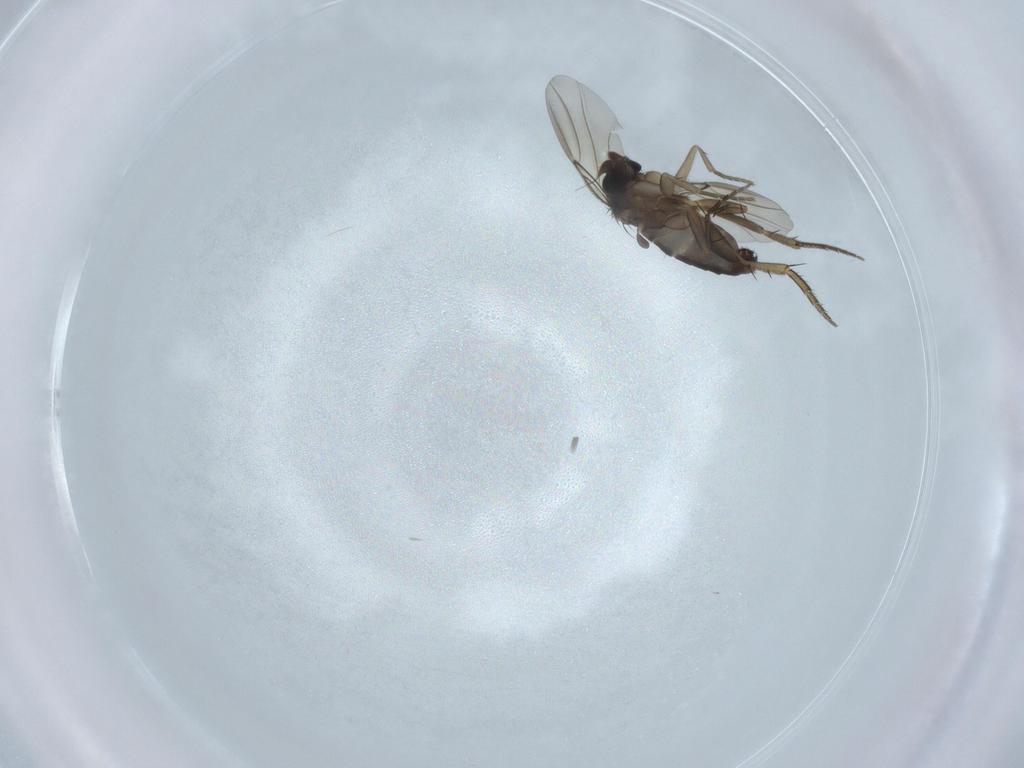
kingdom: Animalia
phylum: Arthropoda
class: Insecta
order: Diptera
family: Phoridae
